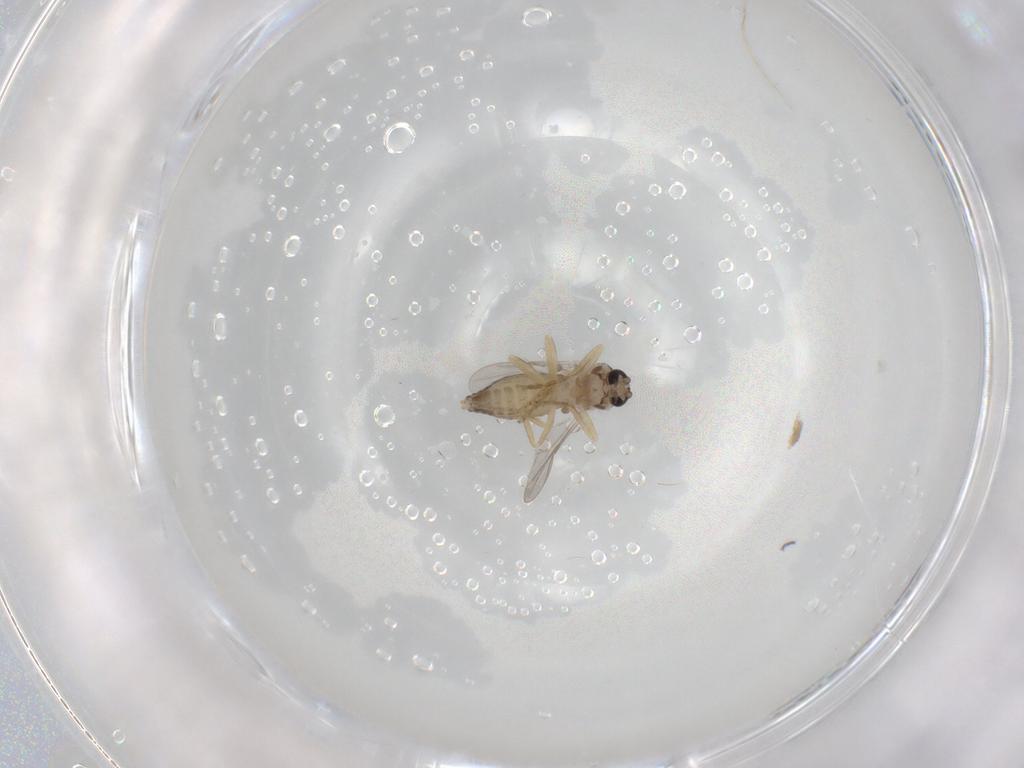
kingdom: Animalia
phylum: Arthropoda
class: Insecta
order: Diptera
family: Ceratopogonidae
